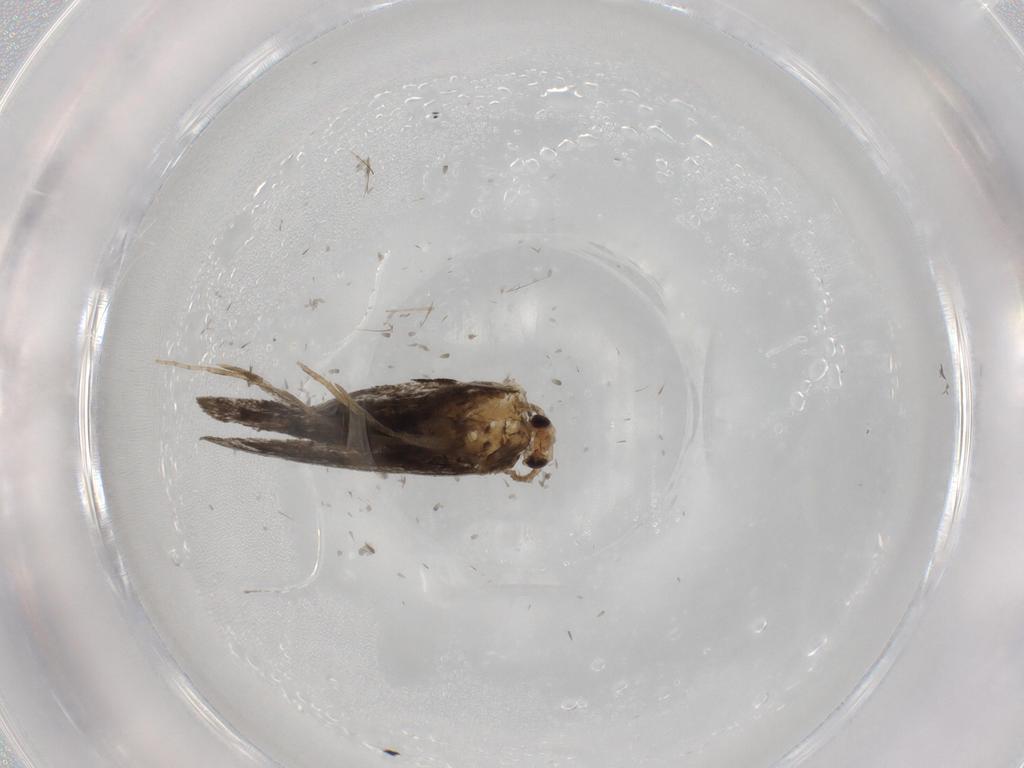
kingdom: Animalia
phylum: Arthropoda
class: Insecta
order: Lepidoptera
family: Psychidae
